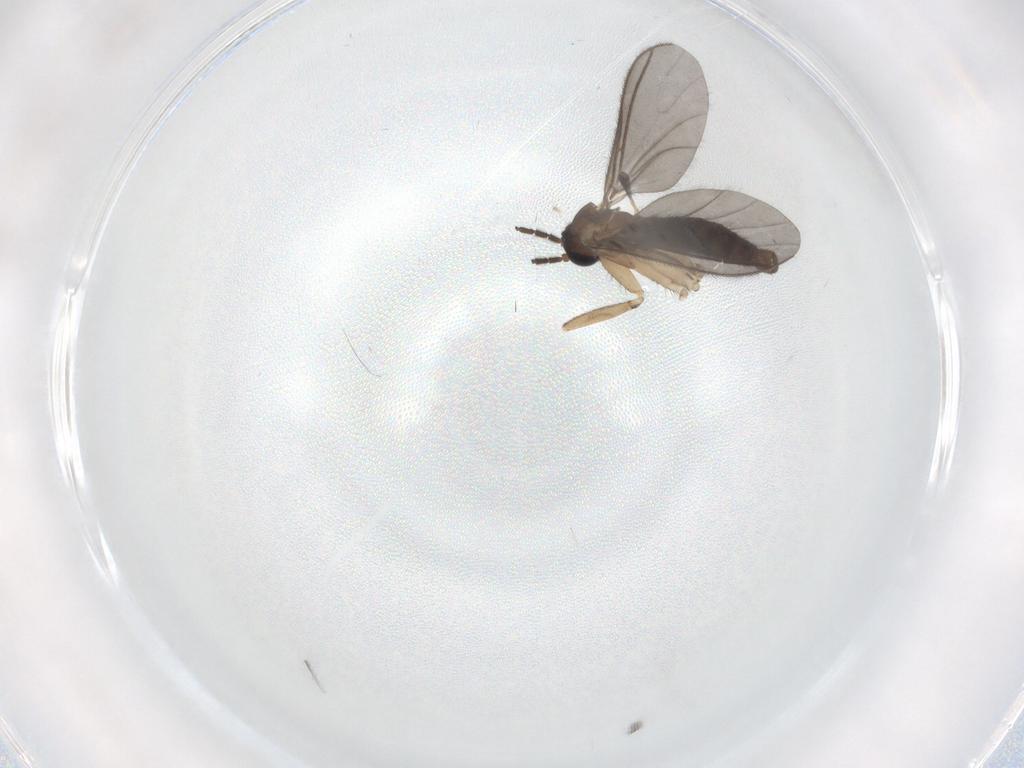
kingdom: Animalia
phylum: Arthropoda
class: Insecta
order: Diptera
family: Sciaridae
